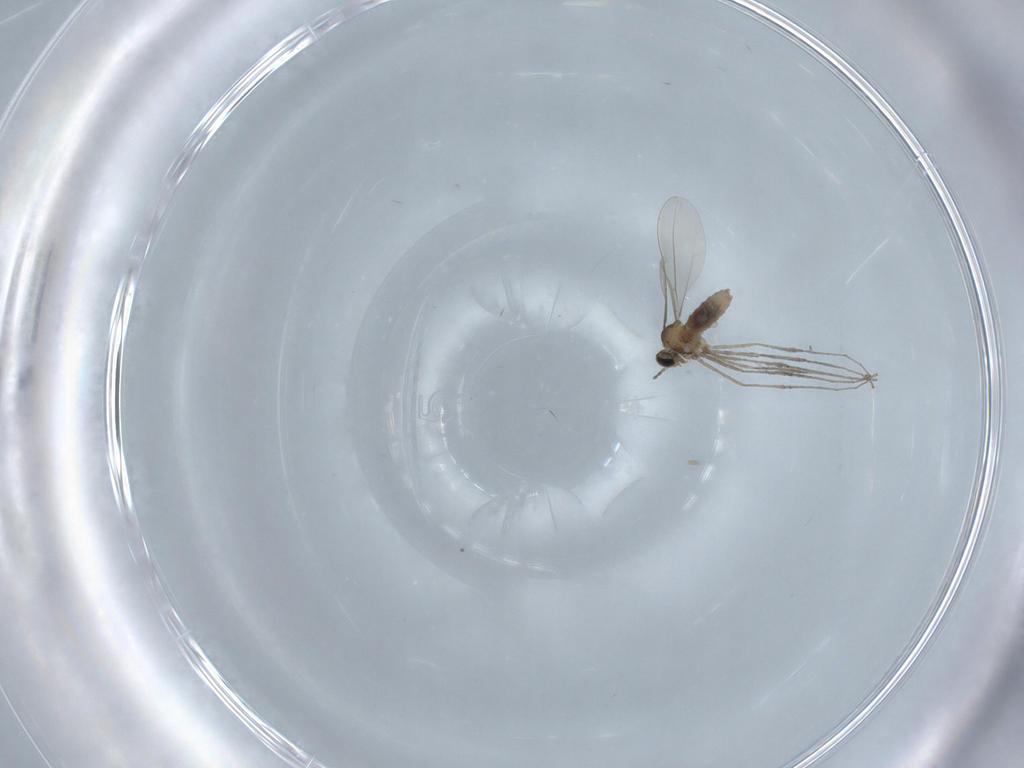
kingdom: Animalia
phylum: Arthropoda
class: Insecta
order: Diptera
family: Cecidomyiidae
